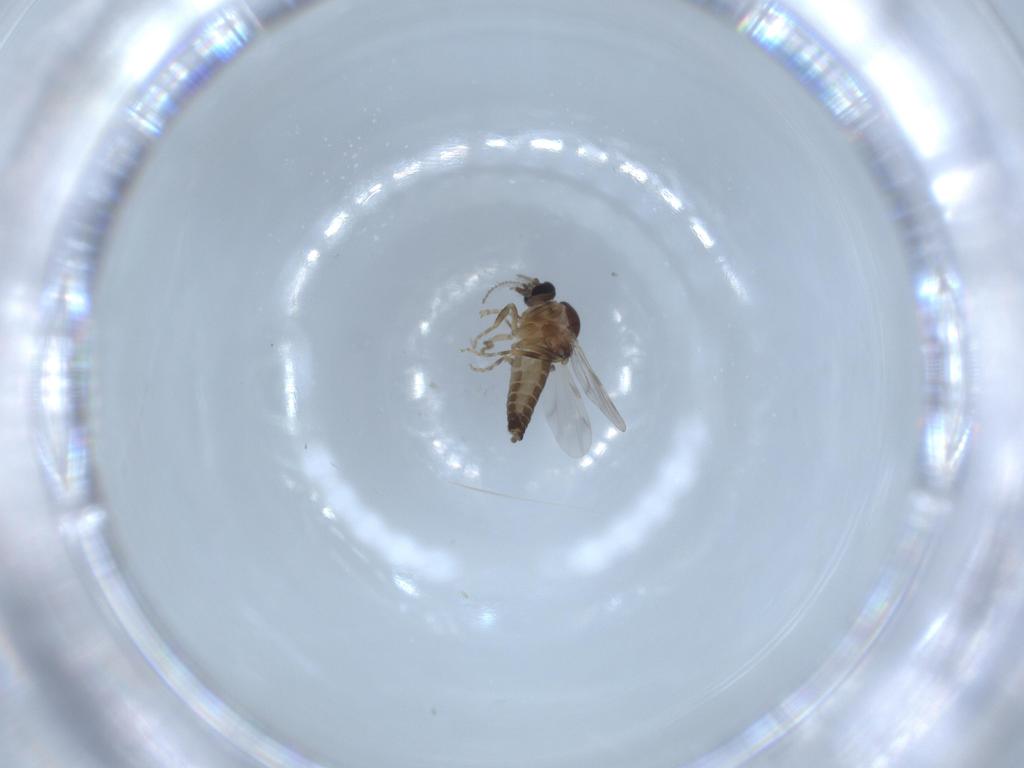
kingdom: Animalia
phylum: Arthropoda
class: Insecta
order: Diptera
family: Ceratopogonidae
